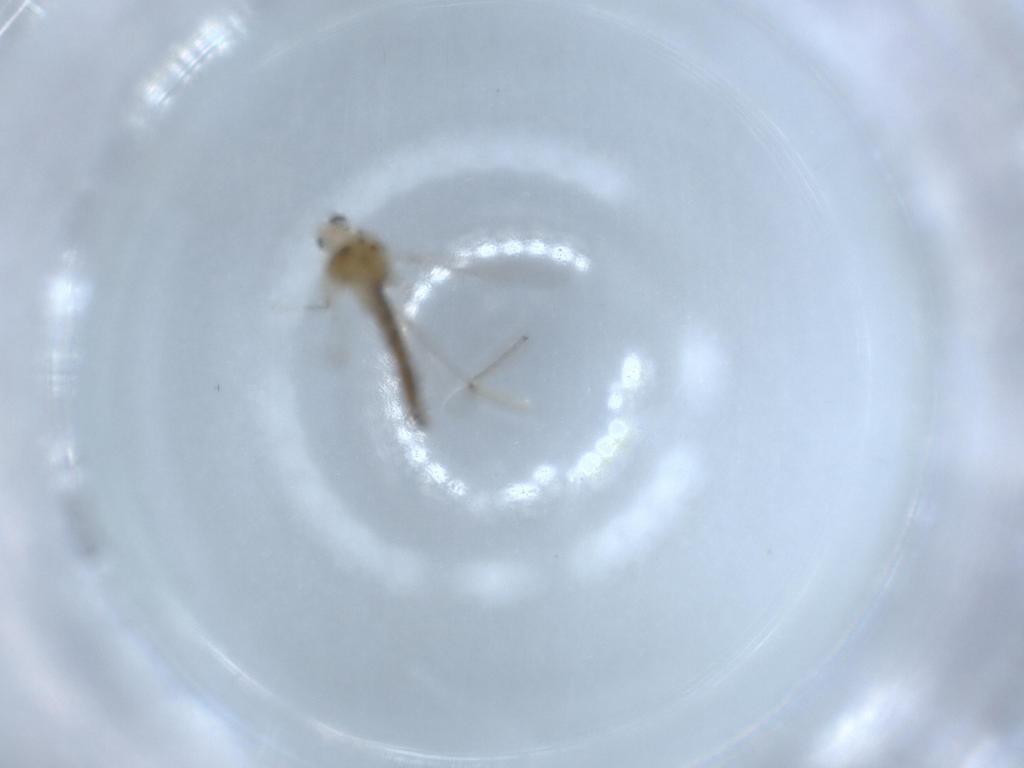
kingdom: Animalia
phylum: Arthropoda
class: Insecta
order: Diptera
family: Chironomidae
